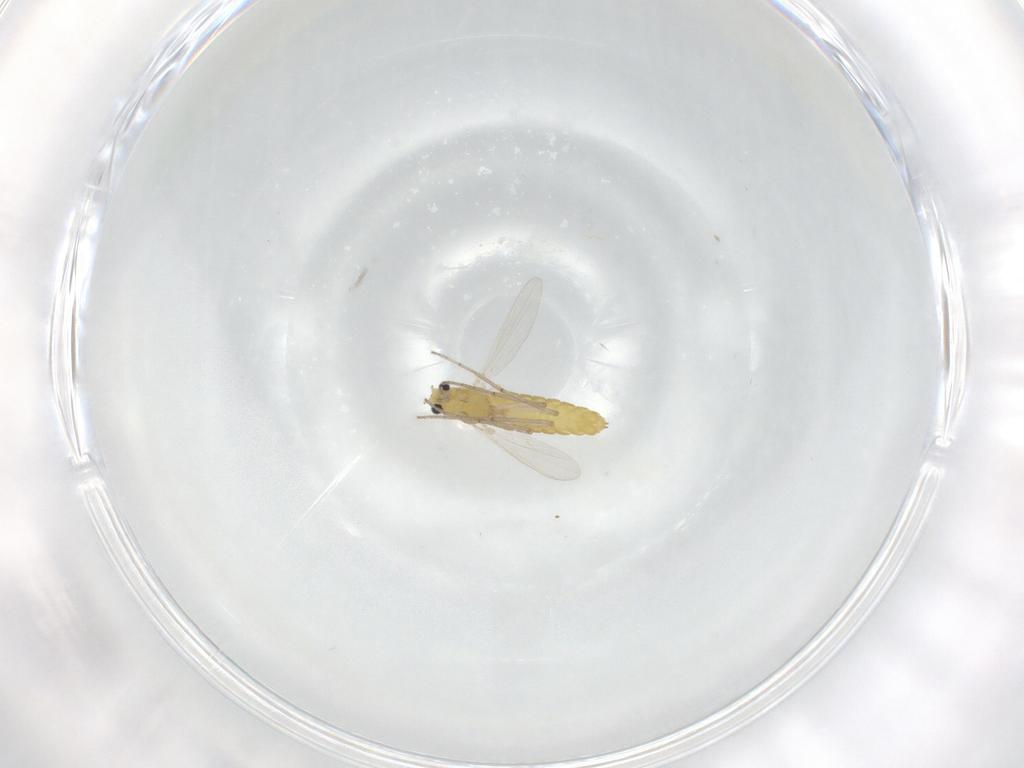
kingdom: Animalia
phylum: Arthropoda
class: Insecta
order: Diptera
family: Chironomidae
